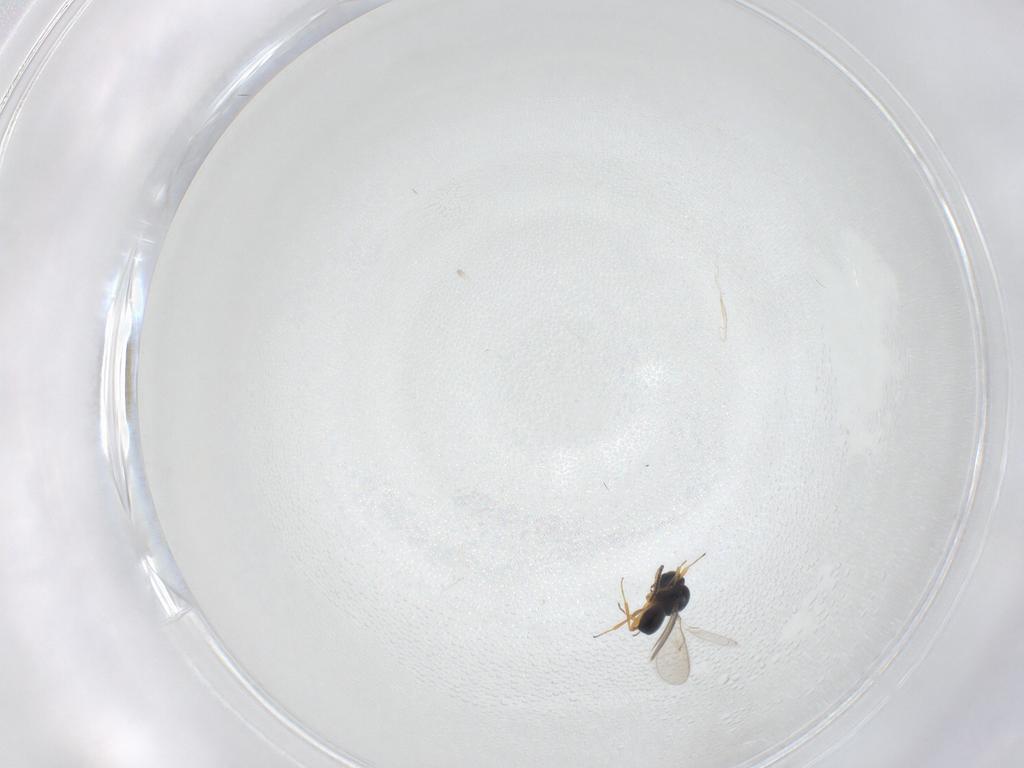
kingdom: Animalia
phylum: Arthropoda
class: Insecta
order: Hymenoptera
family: Scelionidae
